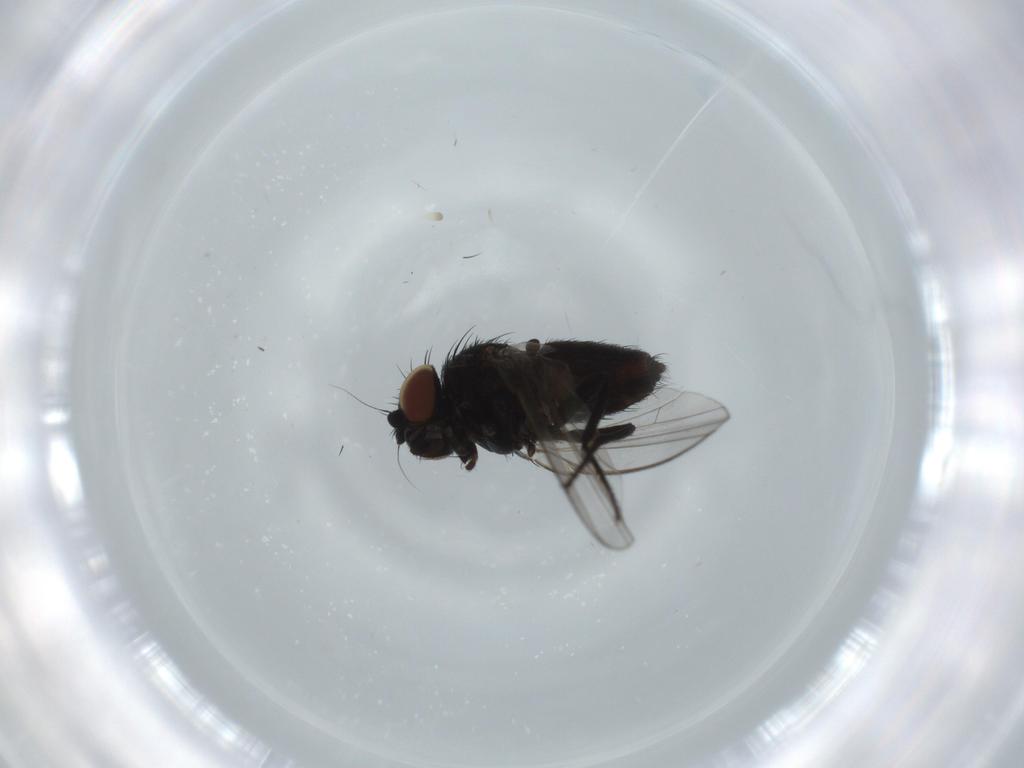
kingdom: Animalia
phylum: Arthropoda
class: Insecta
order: Diptera
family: Milichiidae
